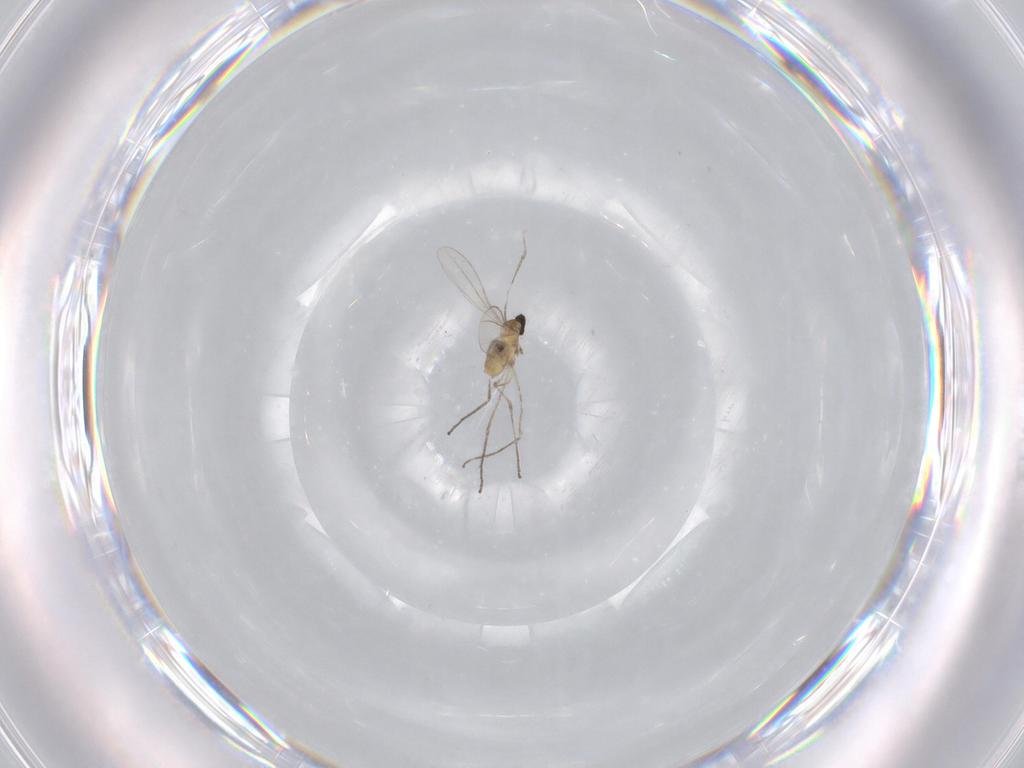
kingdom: Animalia
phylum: Arthropoda
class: Insecta
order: Diptera
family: Cecidomyiidae
